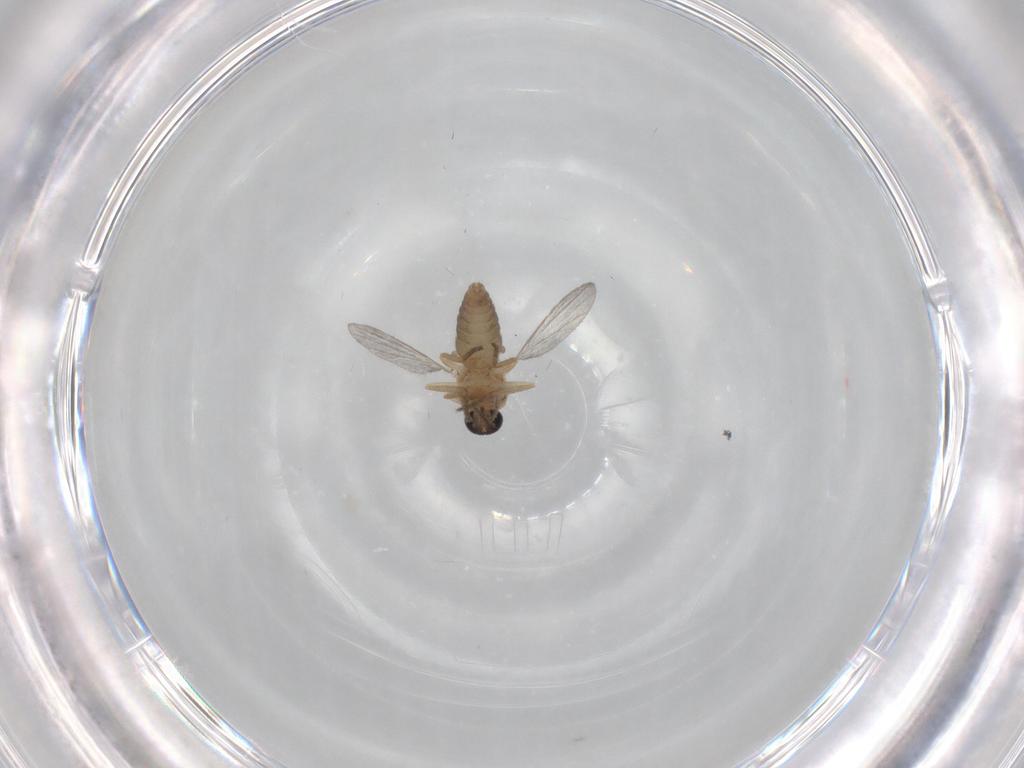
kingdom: Animalia
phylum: Arthropoda
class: Insecta
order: Diptera
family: Ceratopogonidae
